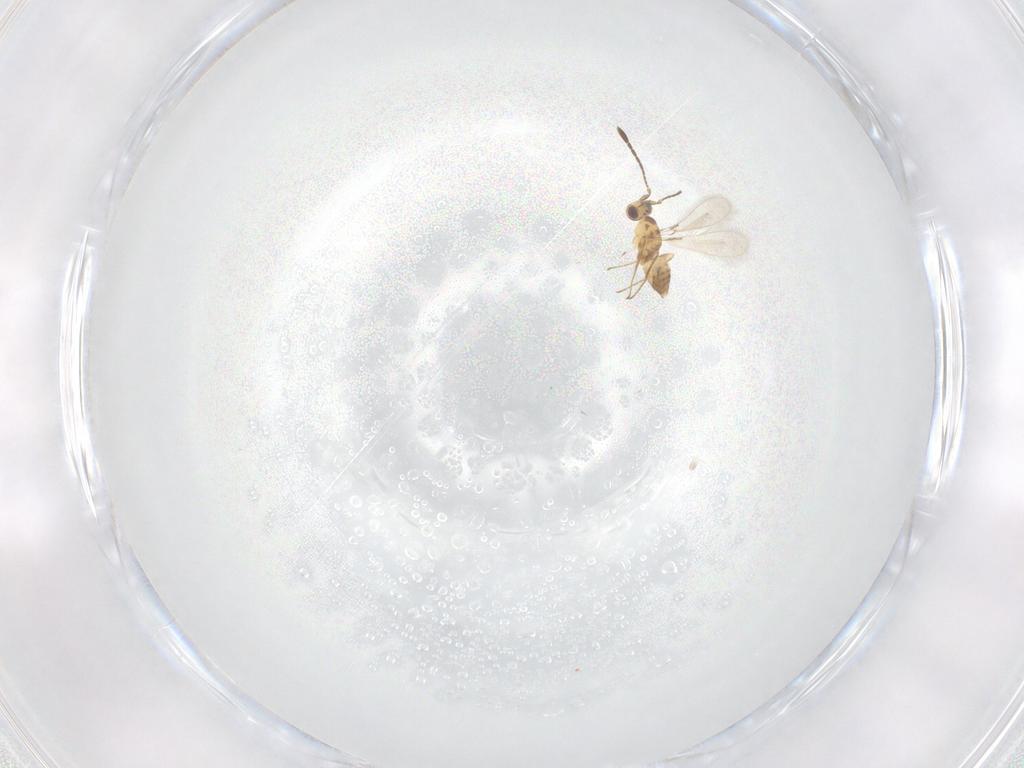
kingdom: Animalia
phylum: Arthropoda
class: Insecta
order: Hymenoptera
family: Mymaridae
